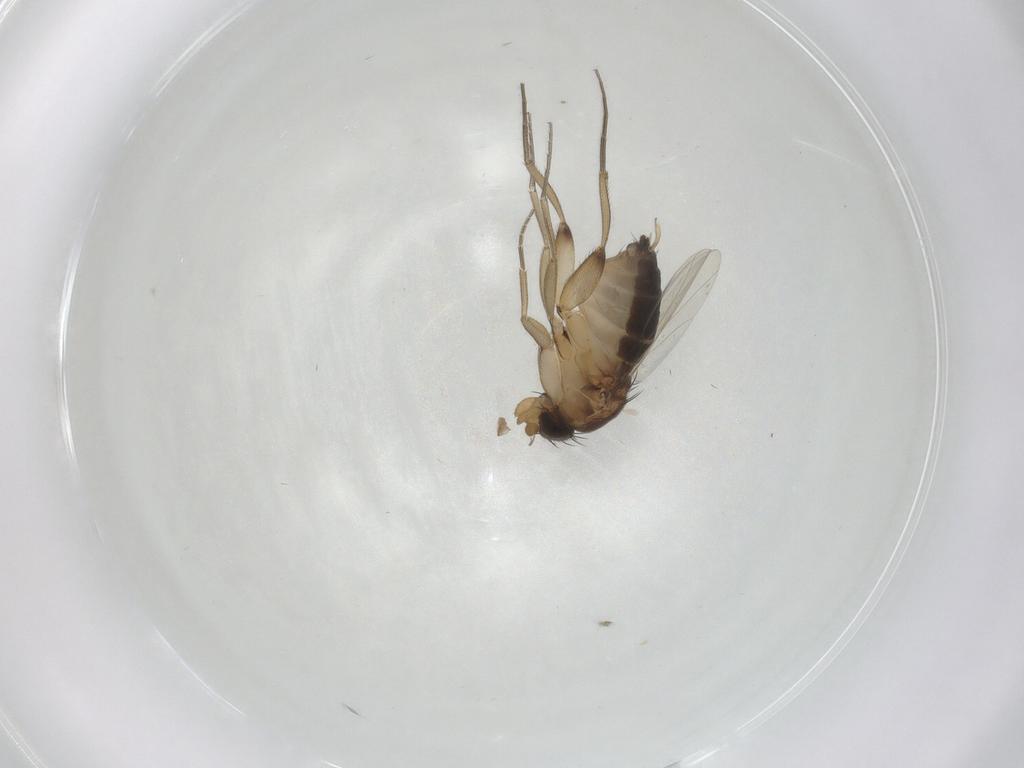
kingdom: Animalia
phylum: Arthropoda
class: Insecta
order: Diptera
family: Phoridae
